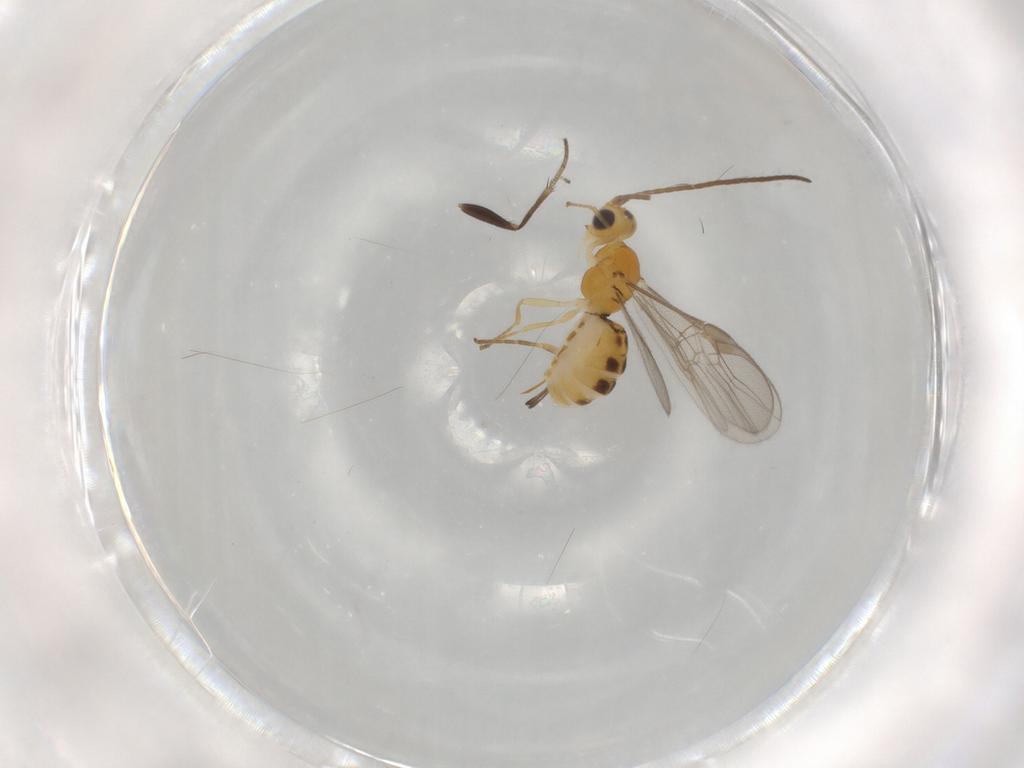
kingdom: Animalia
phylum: Arthropoda
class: Insecta
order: Hymenoptera
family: Braconidae
